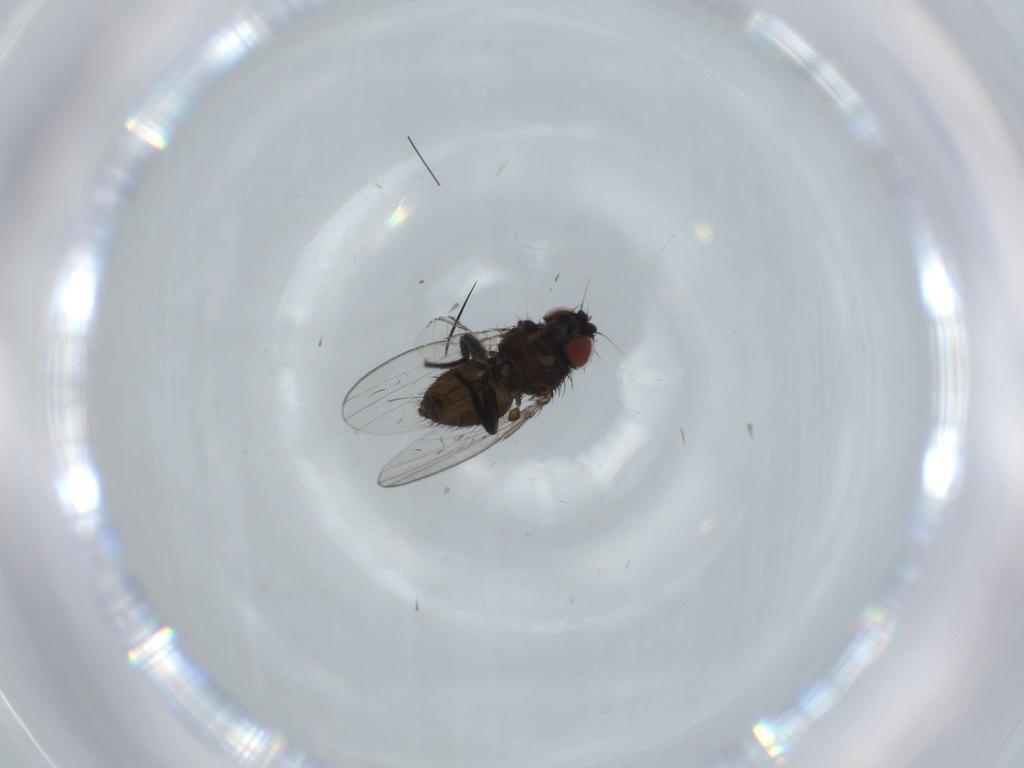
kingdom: Animalia
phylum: Arthropoda
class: Insecta
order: Diptera
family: Milichiidae
